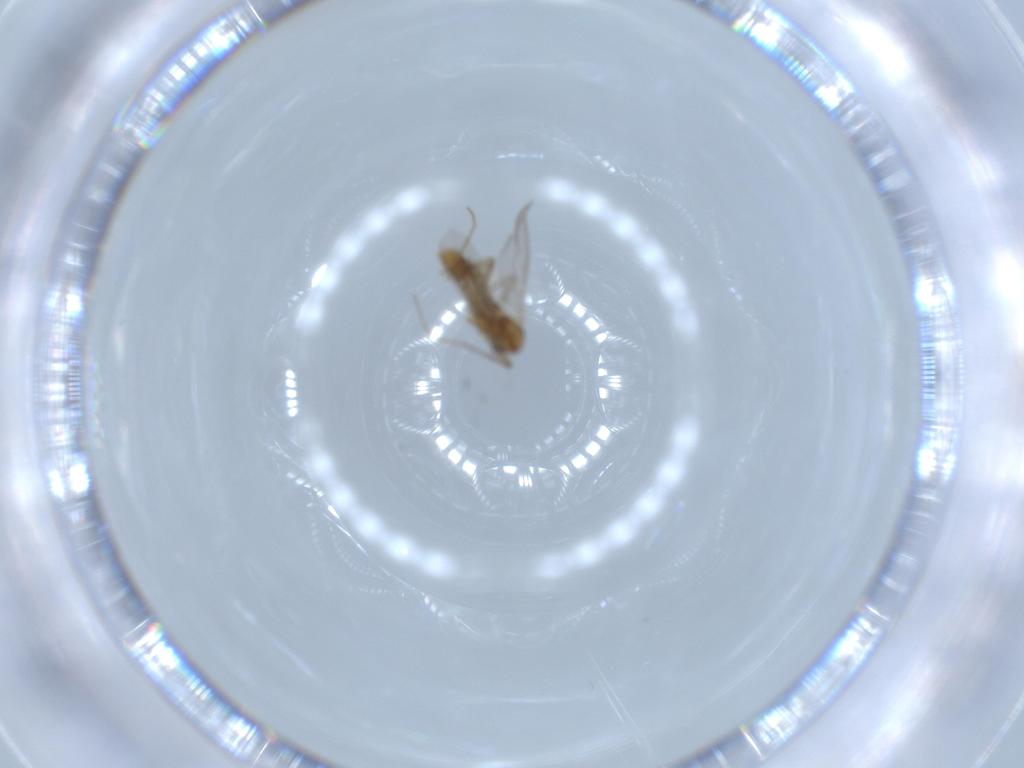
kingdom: Animalia
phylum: Arthropoda
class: Insecta
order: Diptera
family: Chironomidae
